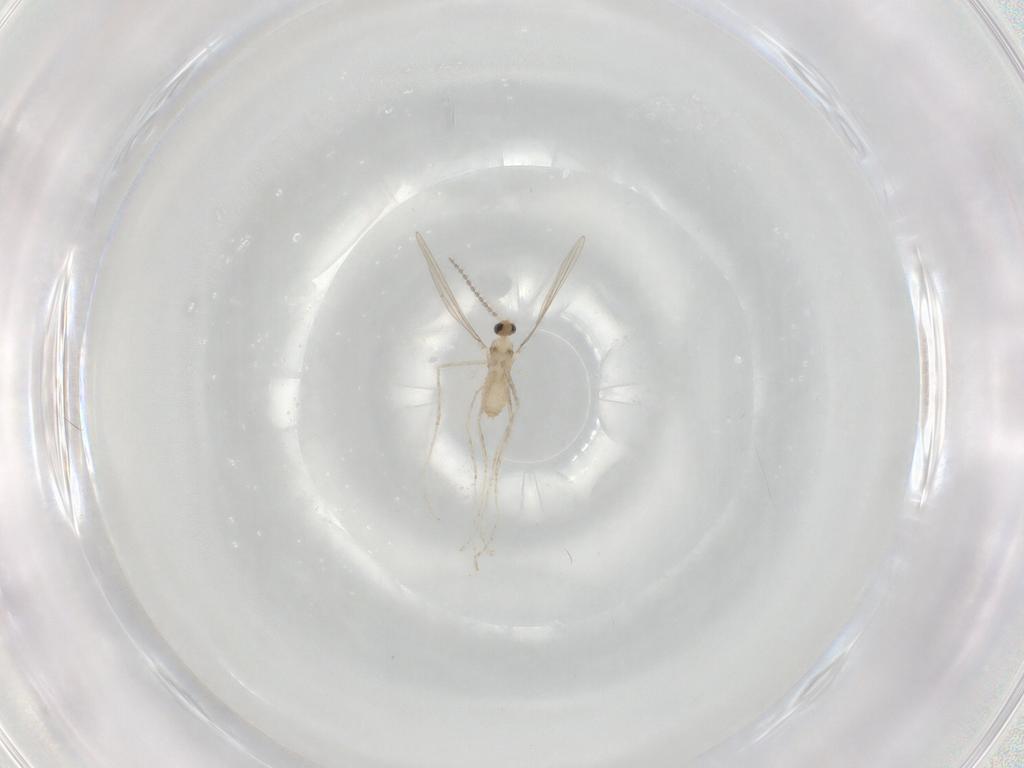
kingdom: Animalia
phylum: Arthropoda
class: Insecta
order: Diptera
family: Cecidomyiidae
